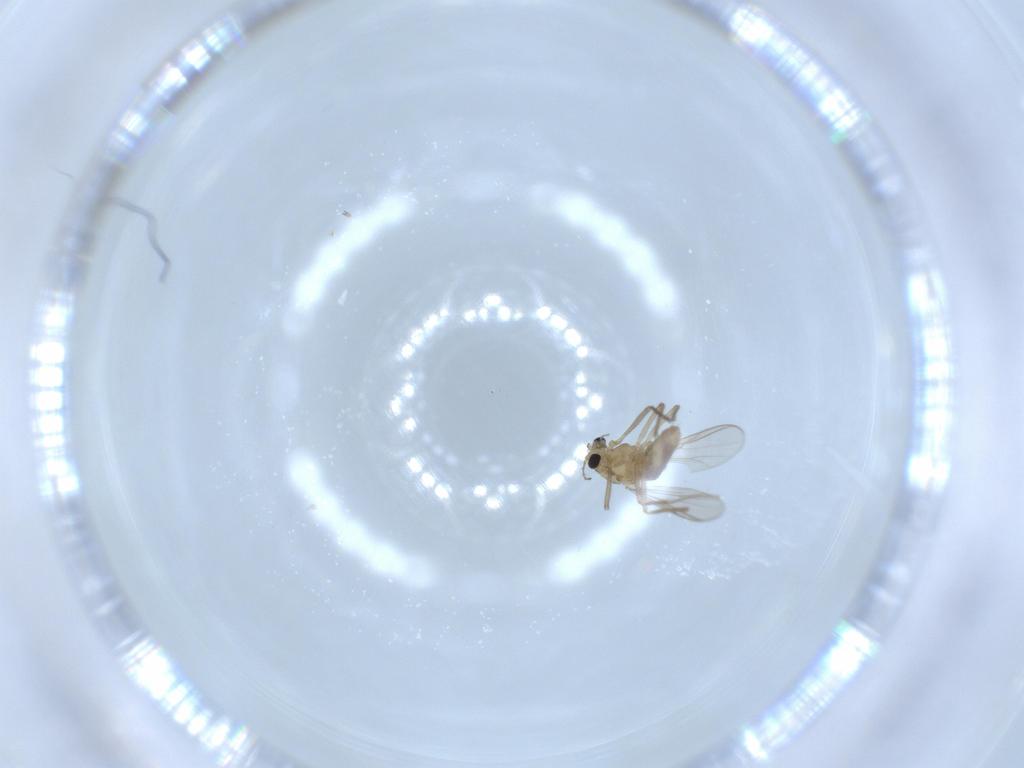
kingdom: Animalia
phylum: Arthropoda
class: Insecta
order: Diptera
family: Chironomidae
